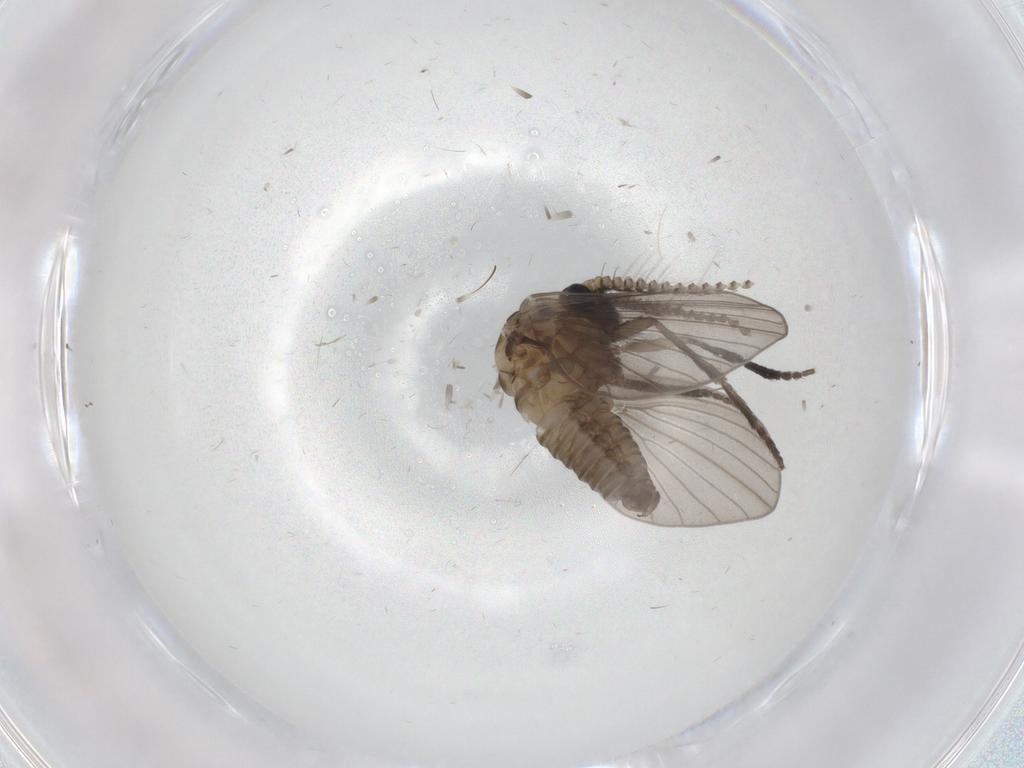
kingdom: Animalia
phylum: Arthropoda
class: Insecta
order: Diptera
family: Psychodidae
